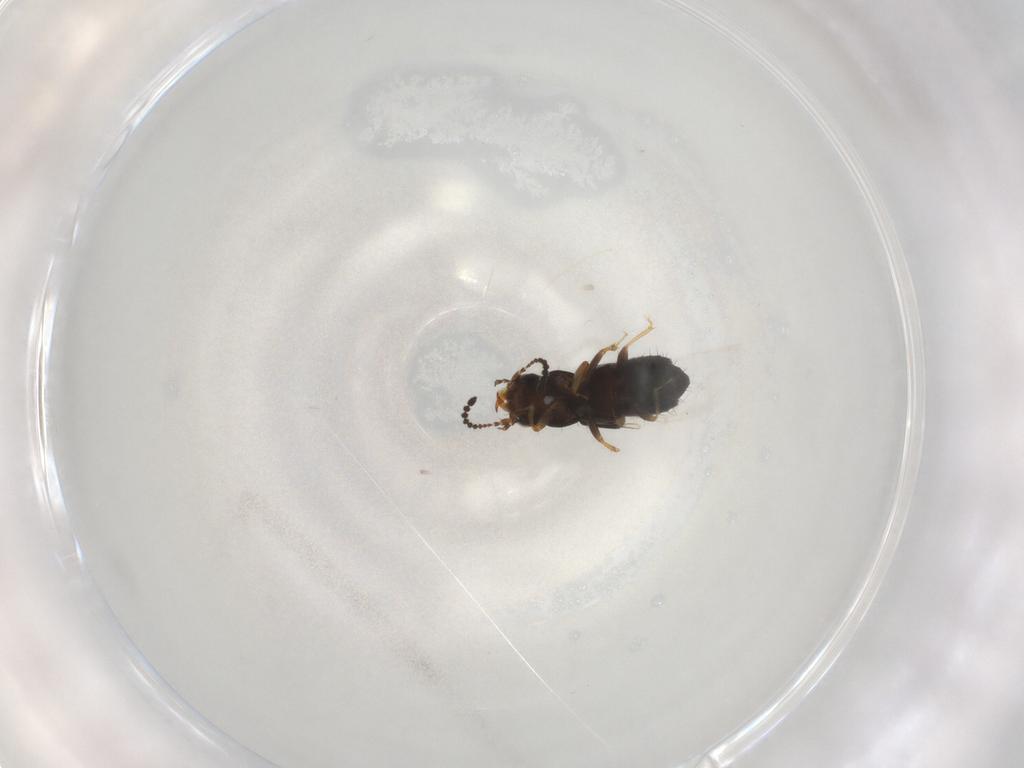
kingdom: Animalia
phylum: Arthropoda
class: Insecta
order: Coleoptera
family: Staphylinidae
